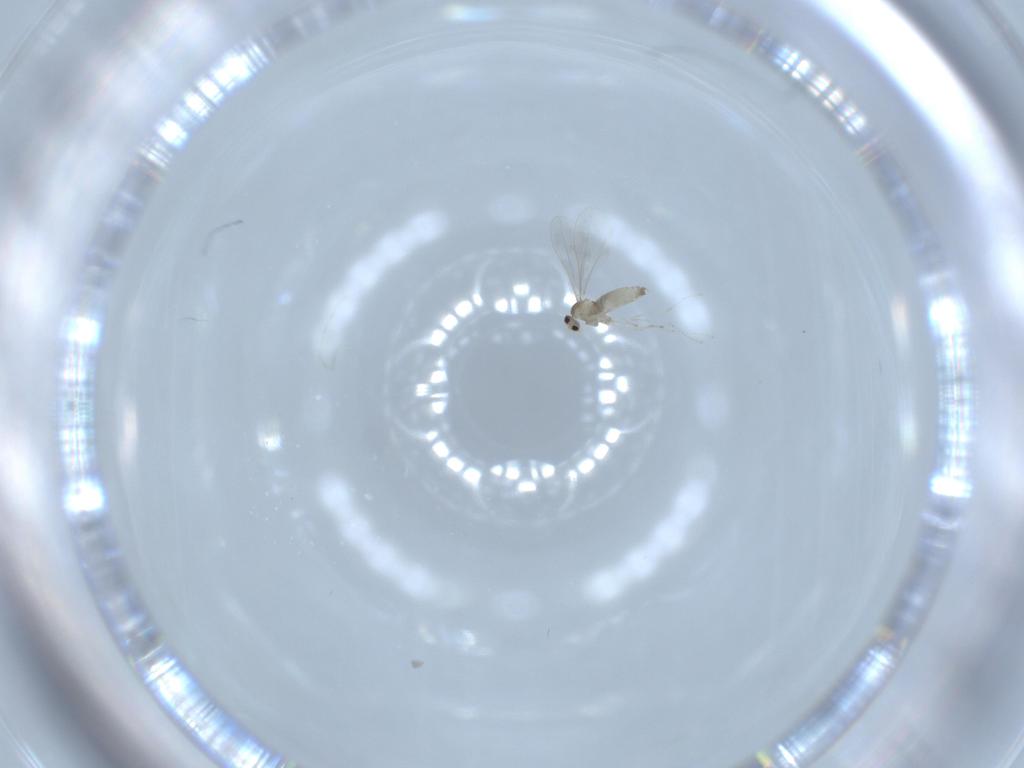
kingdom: Animalia
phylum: Arthropoda
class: Insecta
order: Diptera
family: Cecidomyiidae
